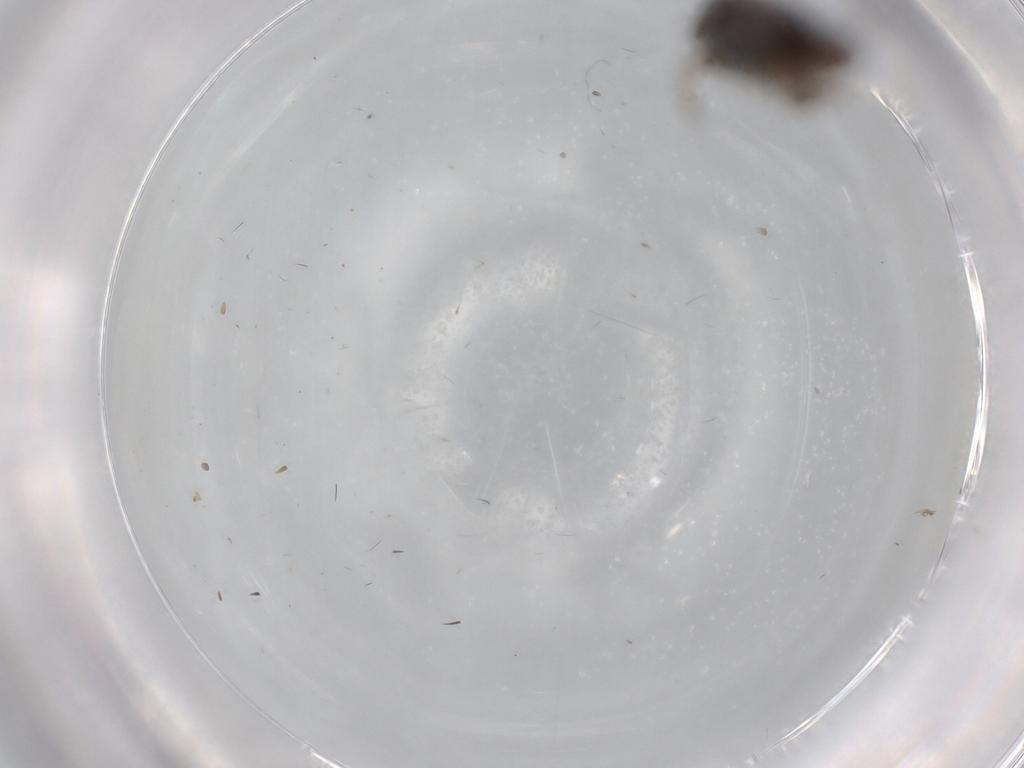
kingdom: Animalia
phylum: Arthropoda
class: Insecta
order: Hemiptera
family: Cicadellidae
